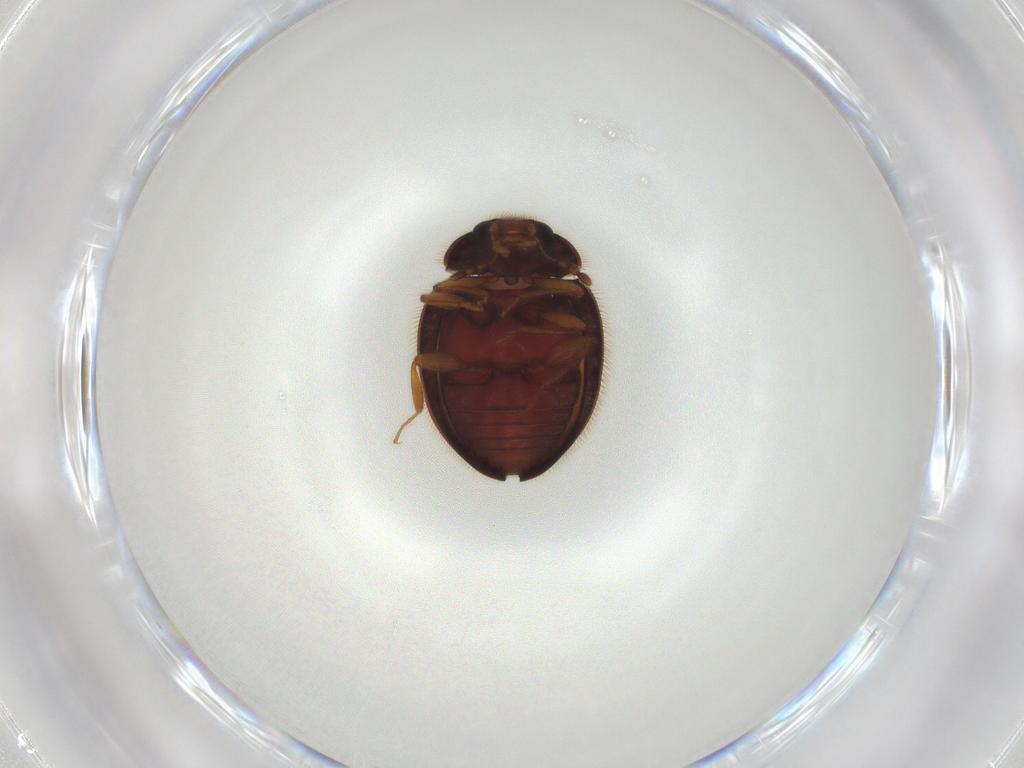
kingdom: Animalia
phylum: Arthropoda
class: Insecta
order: Coleoptera
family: Anamorphidae
